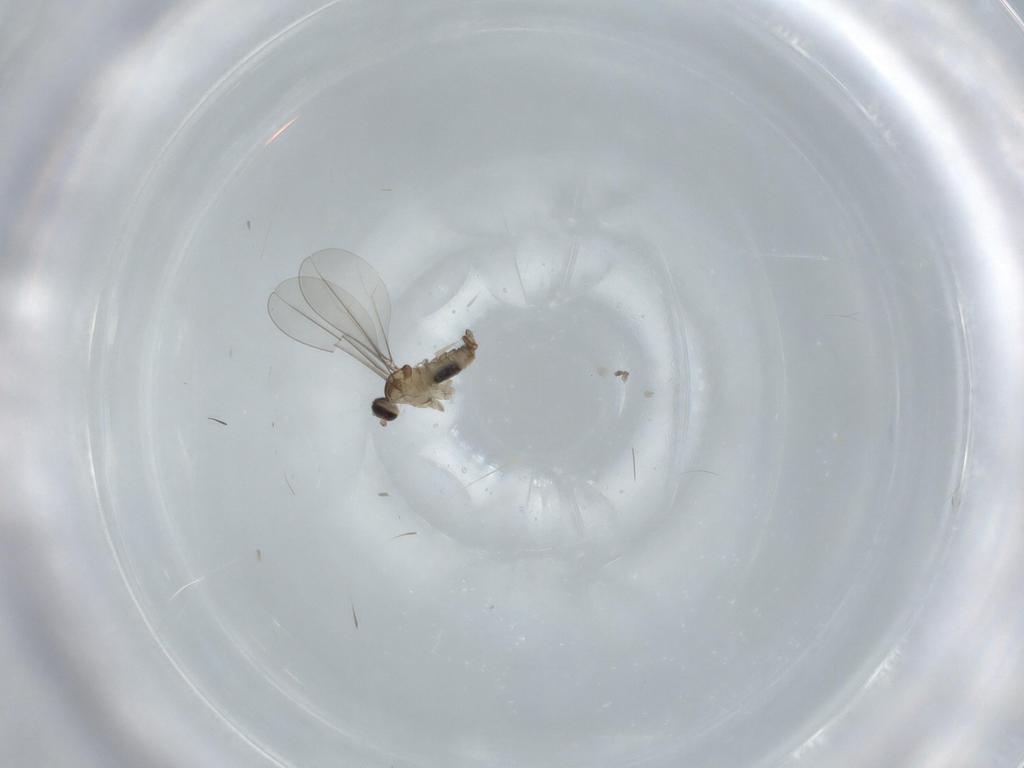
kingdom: Animalia
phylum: Arthropoda
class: Insecta
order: Diptera
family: Cecidomyiidae
